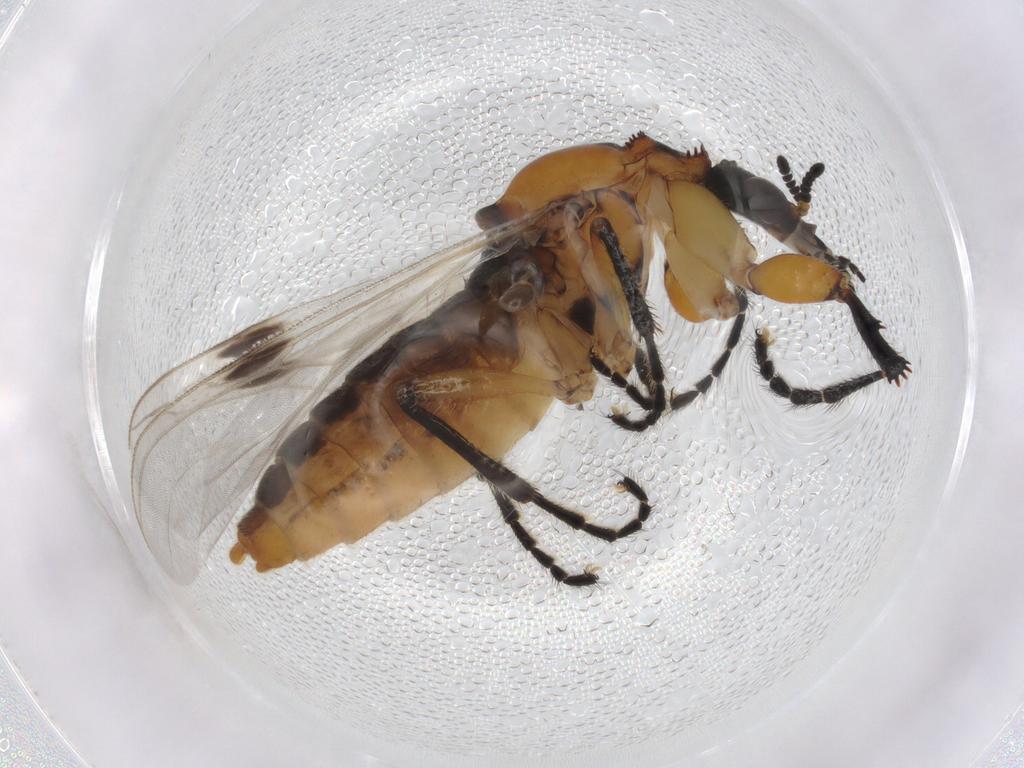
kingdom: Animalia
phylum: Arthropoda
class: Insecta
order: Diptera
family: Bibionidae
